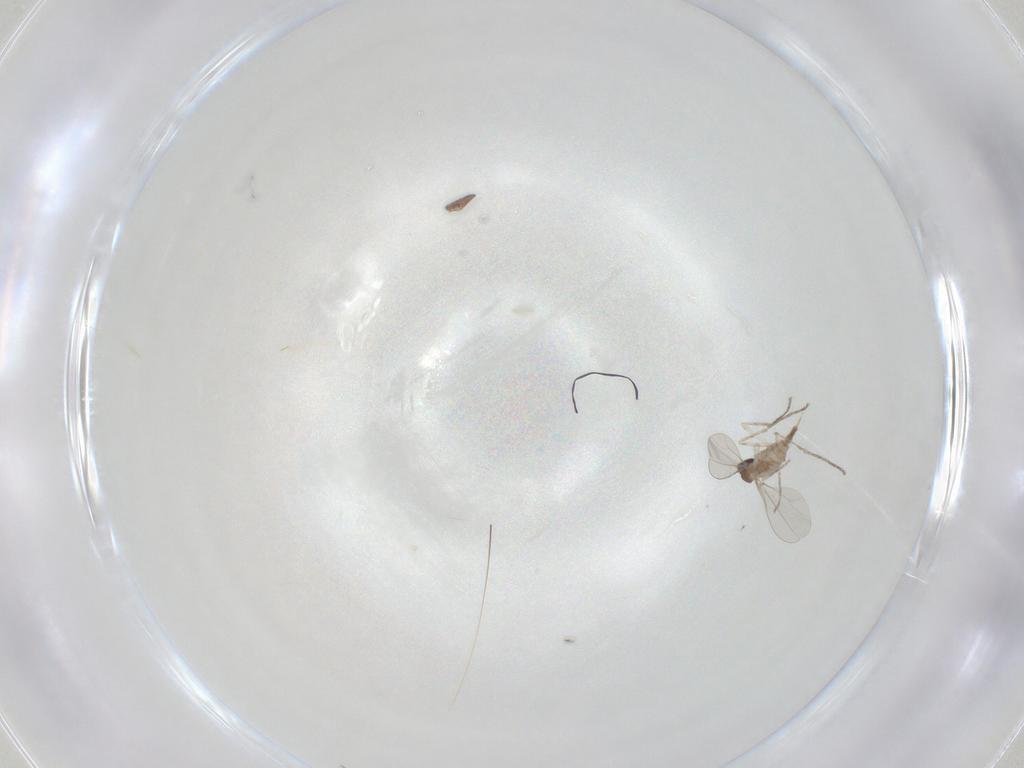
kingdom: Animalia
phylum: Arthropoda
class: Insecta
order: Diptera
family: Cecidomyiidae
